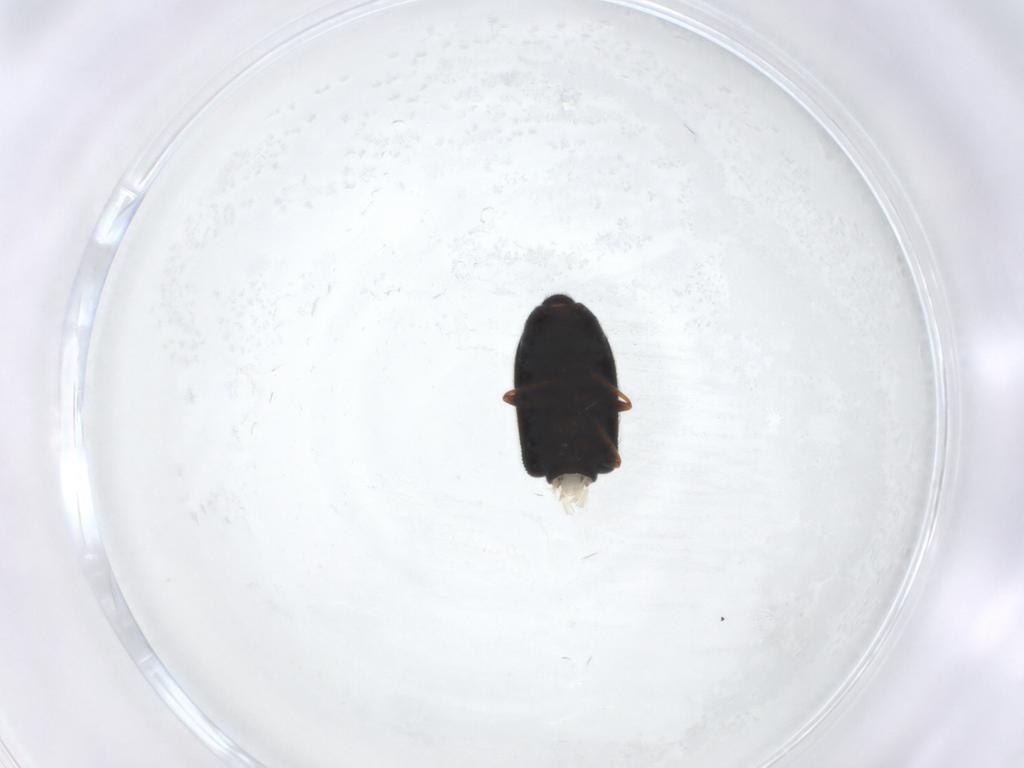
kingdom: Animalia
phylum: Arthropoda
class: Insecta
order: Coleoptera
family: Melyridae
